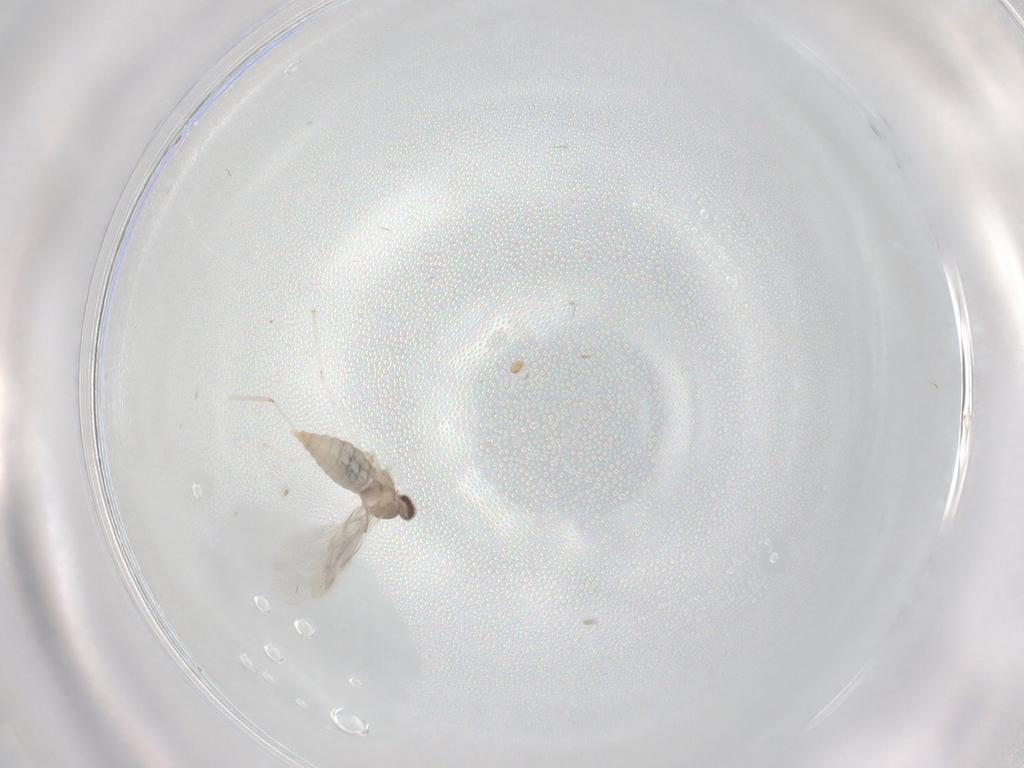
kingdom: Animalia
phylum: Arthropoda
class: Insecta
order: Diptera
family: Cecidomyiidae
